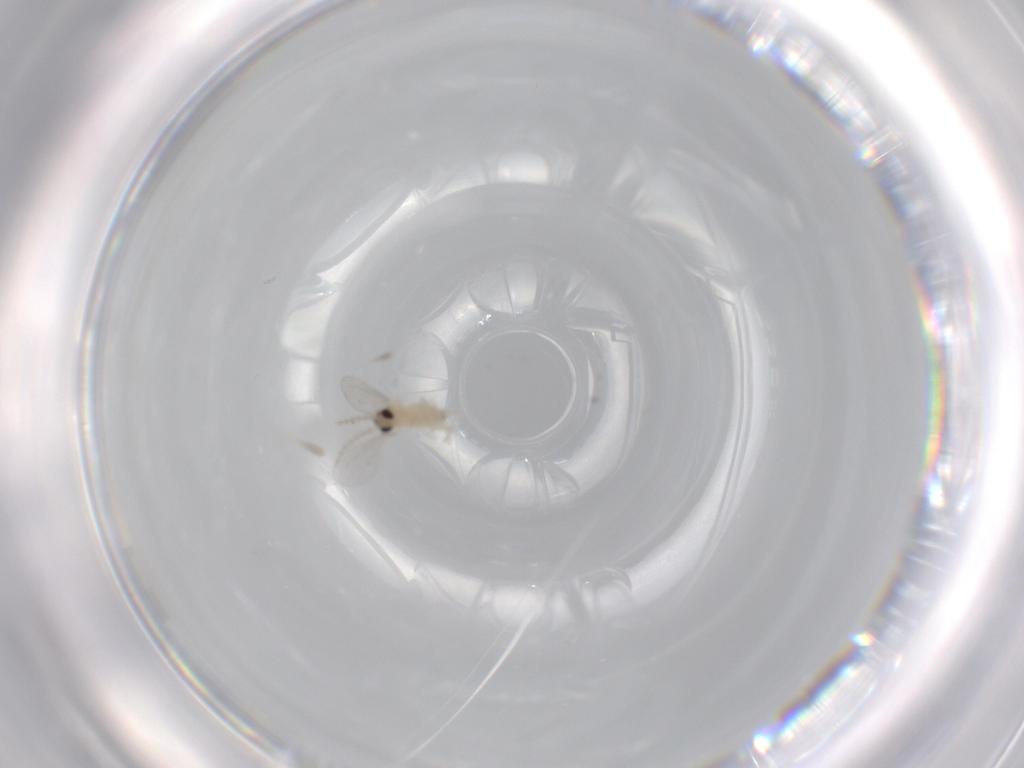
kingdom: Animalia
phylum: Arthropoda
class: Insecta
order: Diptera
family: Cecidomyiidae
